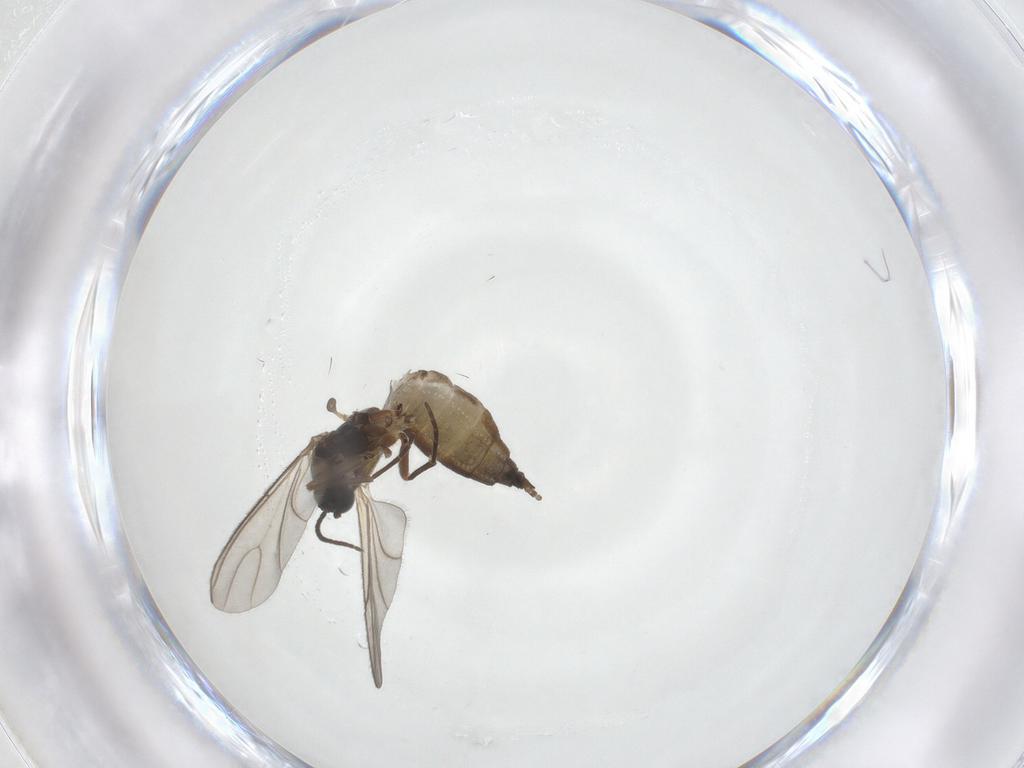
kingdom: Animalia
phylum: Arthropoda
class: Insecta
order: Diptera
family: Sciaridae
